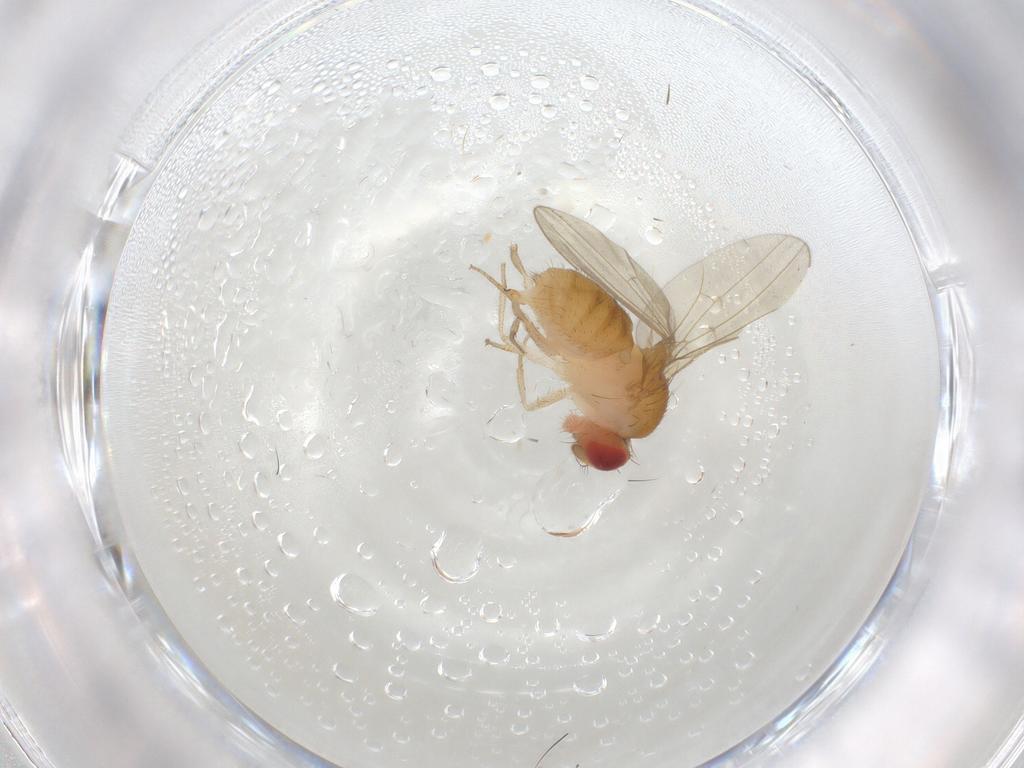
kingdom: Animalia
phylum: Arthropoda
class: Insecta
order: Diptera
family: Drosophilidae
